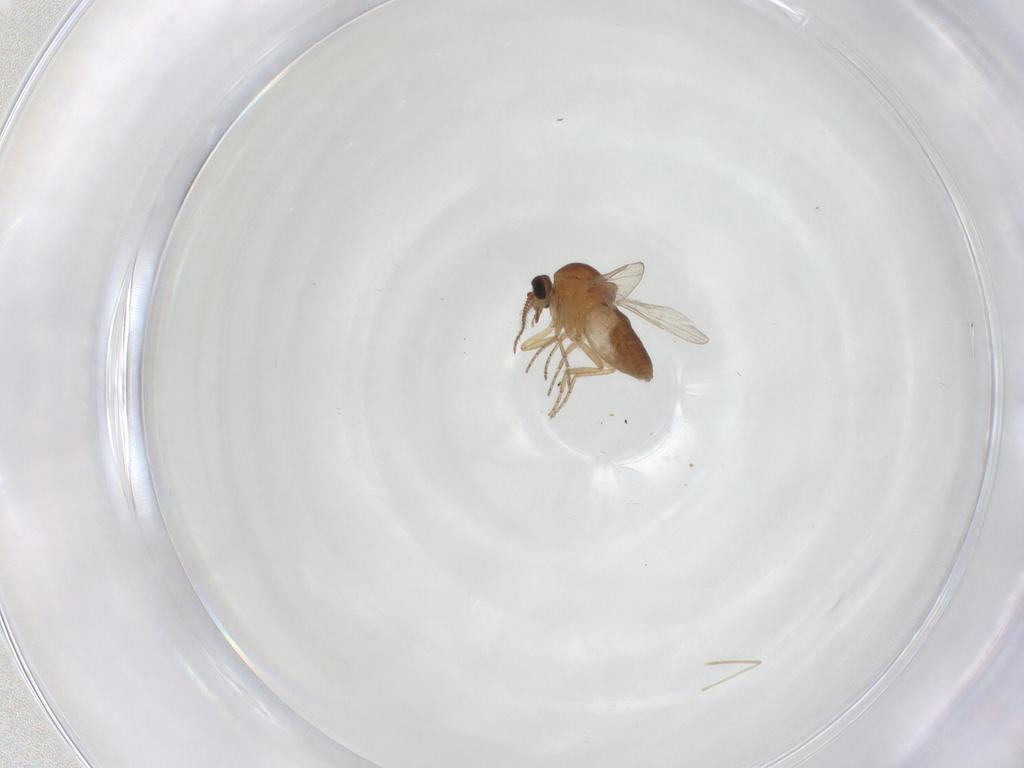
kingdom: Animalia
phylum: Arthropoda
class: Insecta
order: Diptera
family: Ceratopogonidae
